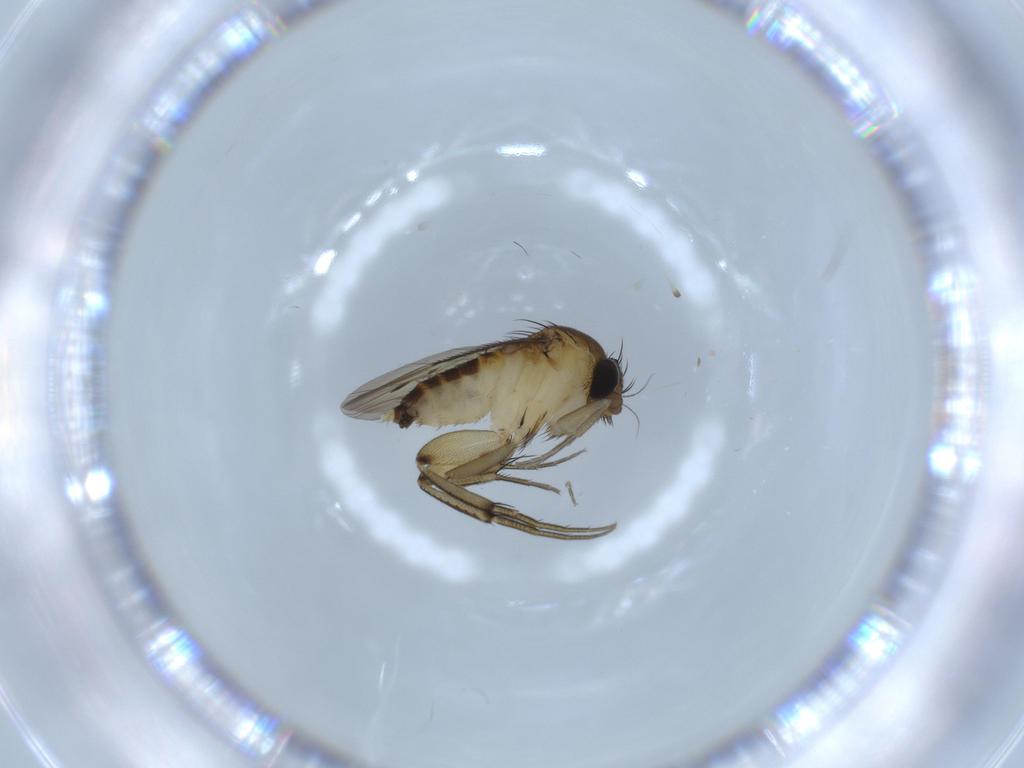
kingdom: Animalia
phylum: Arthropoda
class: Insecta
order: Diptera
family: Phoridae
